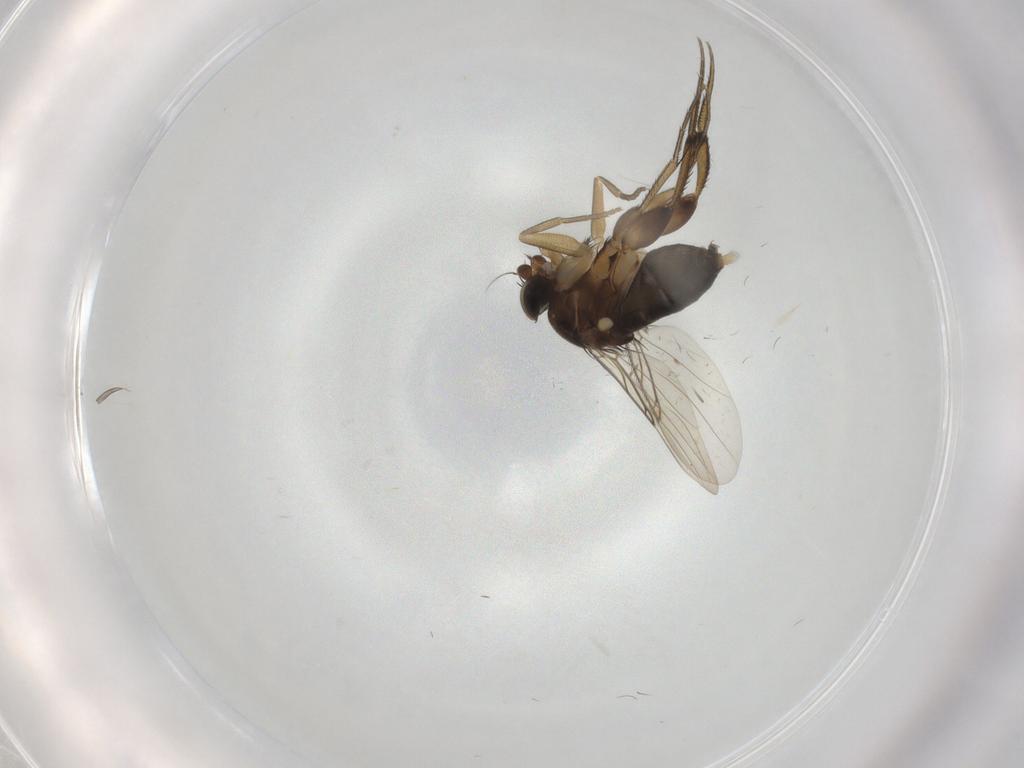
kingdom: Animalia
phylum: Arthropoda
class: Insecta
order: Diptera
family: Phoridae
